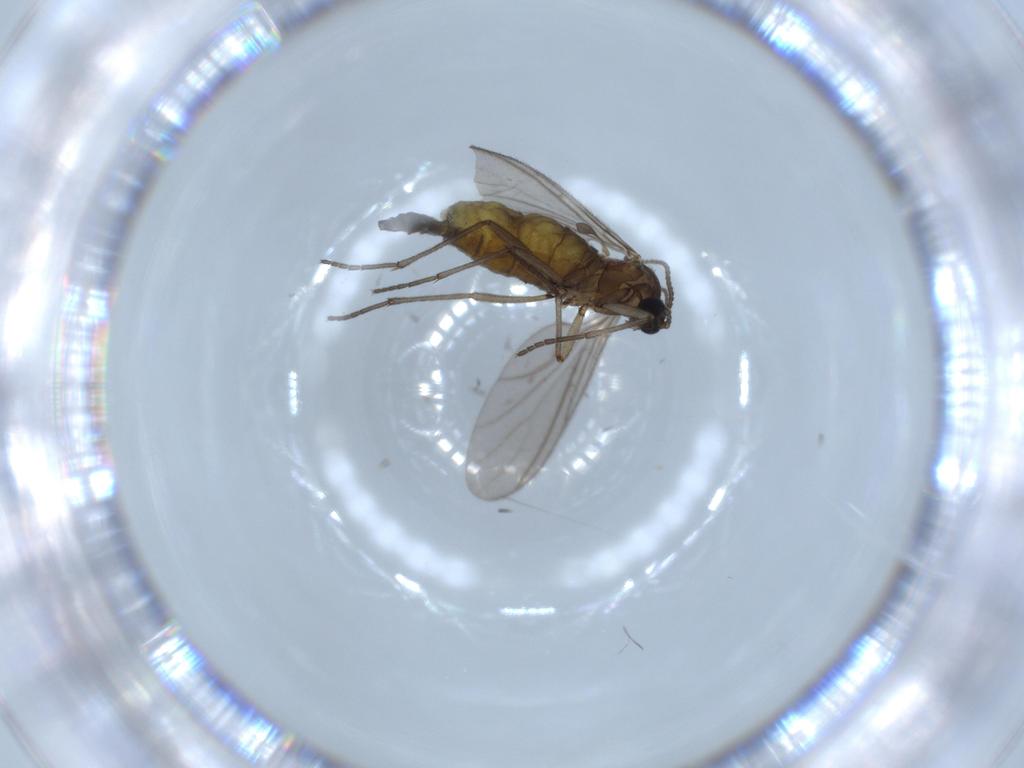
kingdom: Animalia
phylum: Arthropoda
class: Insecta
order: Diptera
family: Sciaridae
